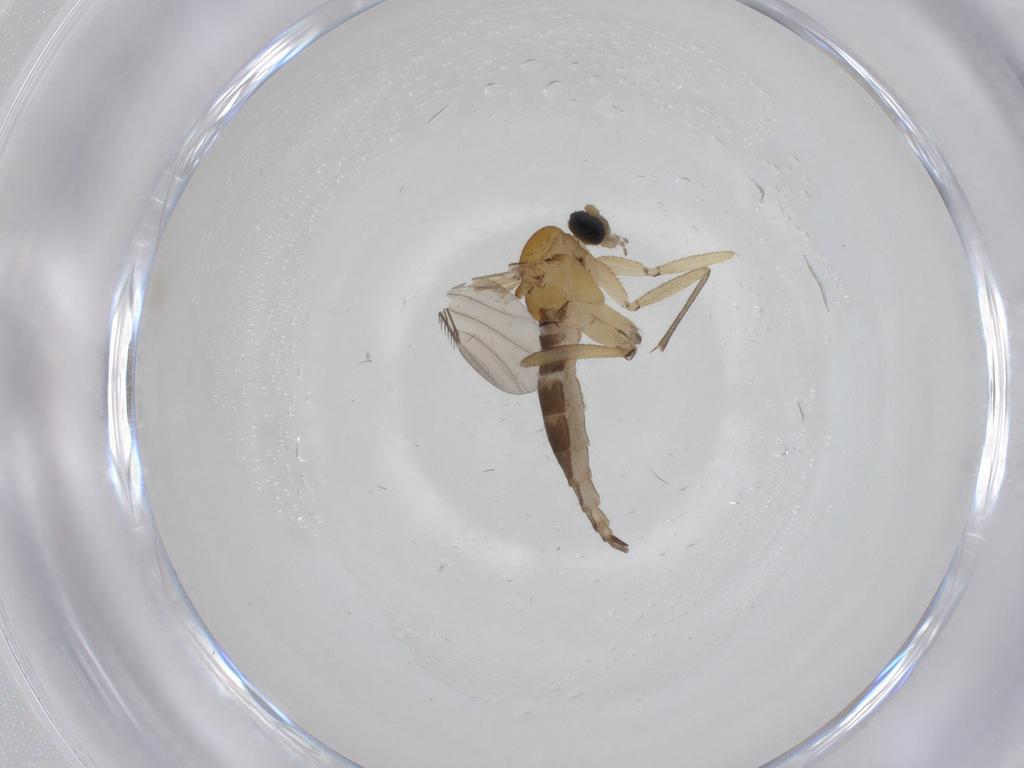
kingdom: Animalia
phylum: Arthropoda
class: Insecta
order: Diptera
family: Sciaridae
